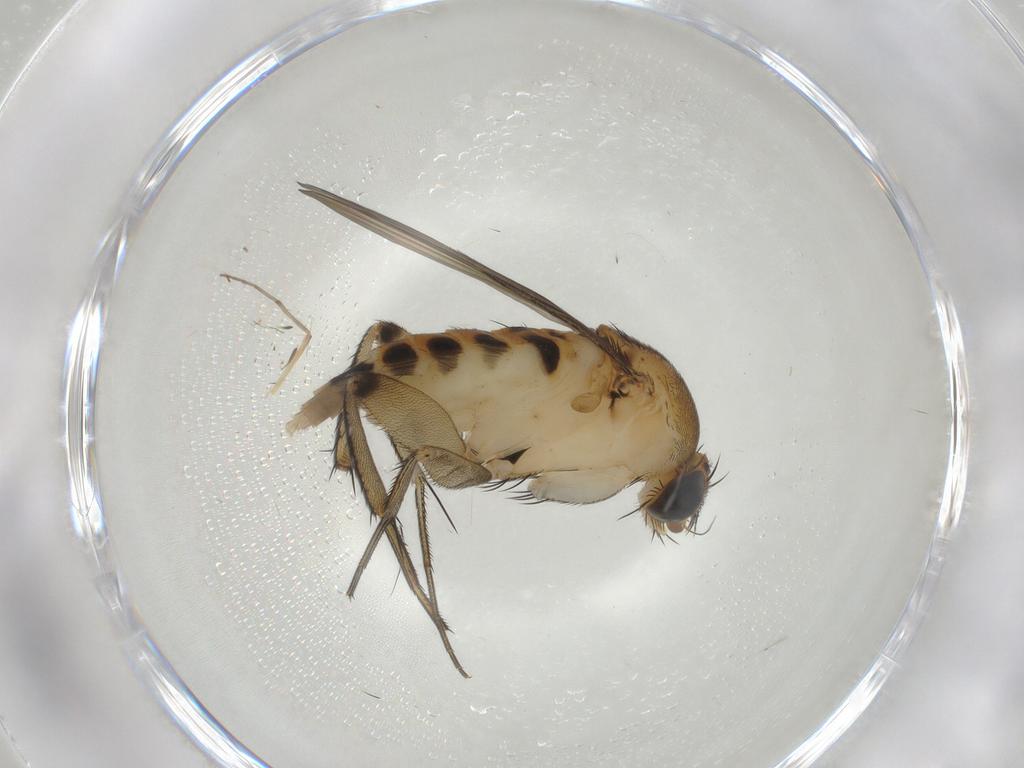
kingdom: Animalia
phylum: Arthropoda
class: Insecta
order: Diptera
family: Phoridae
